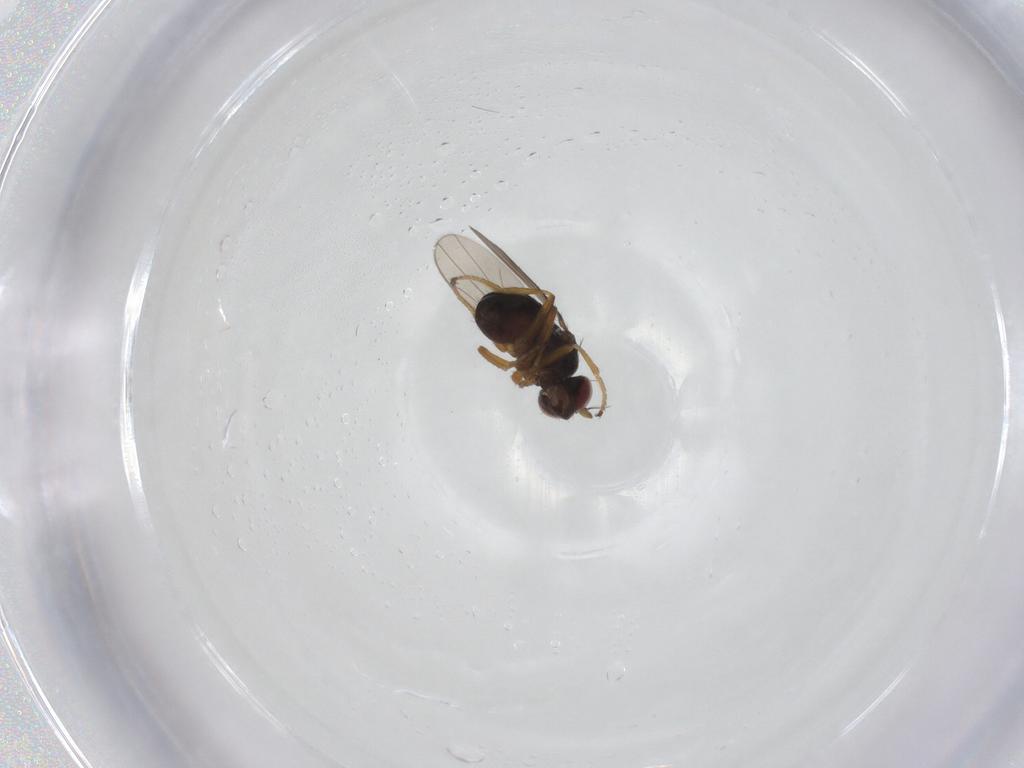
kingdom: Animalia
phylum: Arthropoda
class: Insecta
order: Diptera
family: Ephydridae
